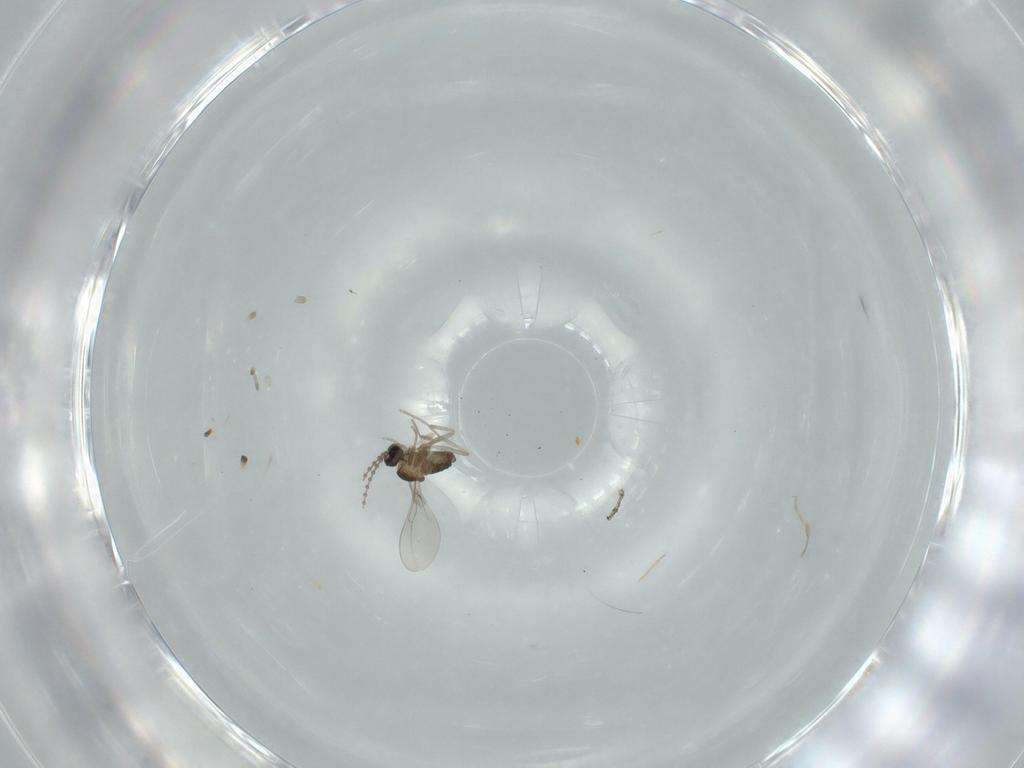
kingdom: Animalia
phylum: Arthropoda
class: Insecta
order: Diptera
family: Cecidomyiidae
